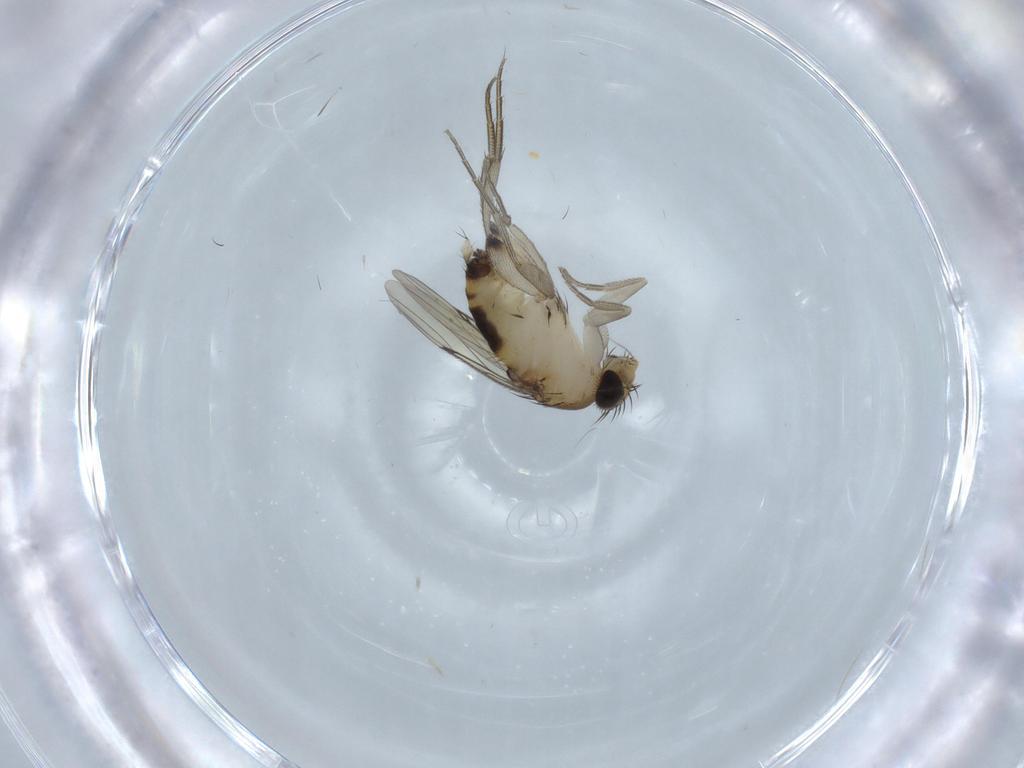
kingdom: Animalia
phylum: Arthropoda
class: Insecta
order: Diptera
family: Phoridae
